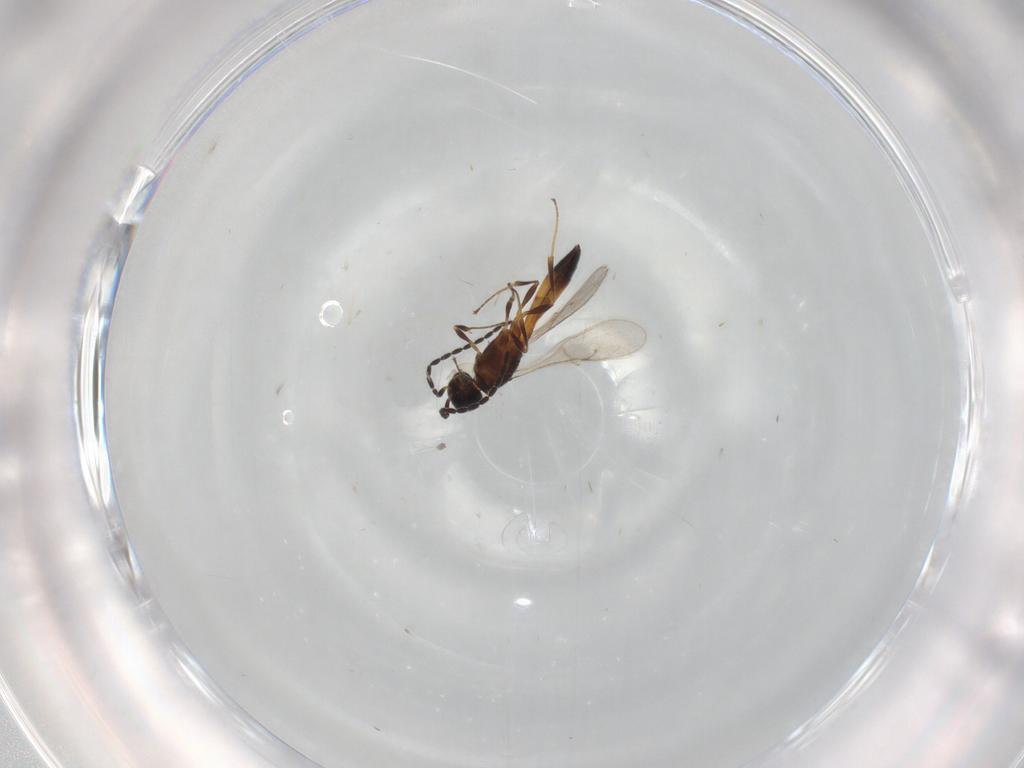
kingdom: Animalia
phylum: Arthropoda
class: Insecta
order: Hymenoptera
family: Scelionidae
